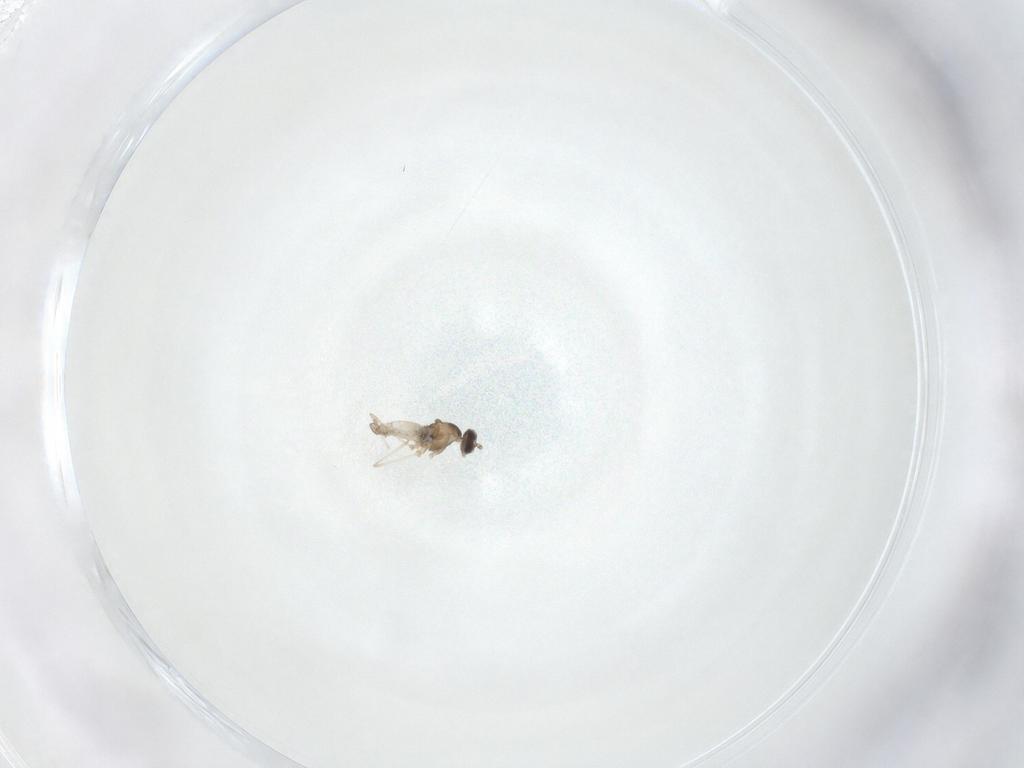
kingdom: Animalia
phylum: Arthropoda
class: Insecta
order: Diptera
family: Cecidomyiidae
